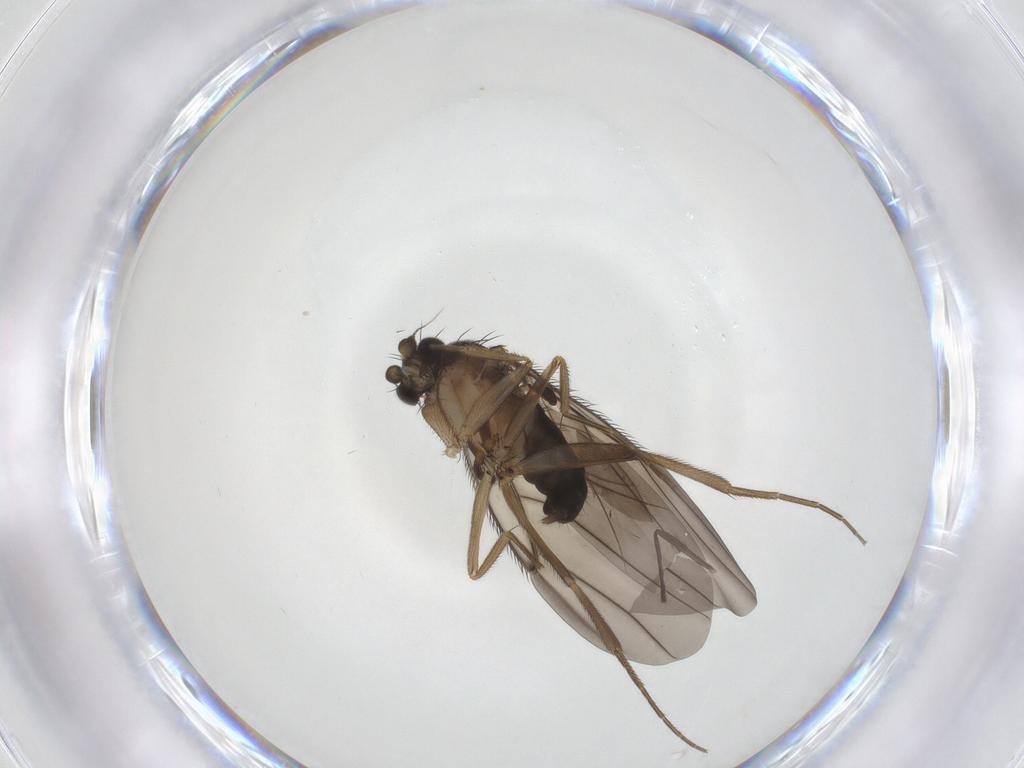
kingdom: Animalia
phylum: Arthropoda
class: Insecta
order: Diptera
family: Phoridae
